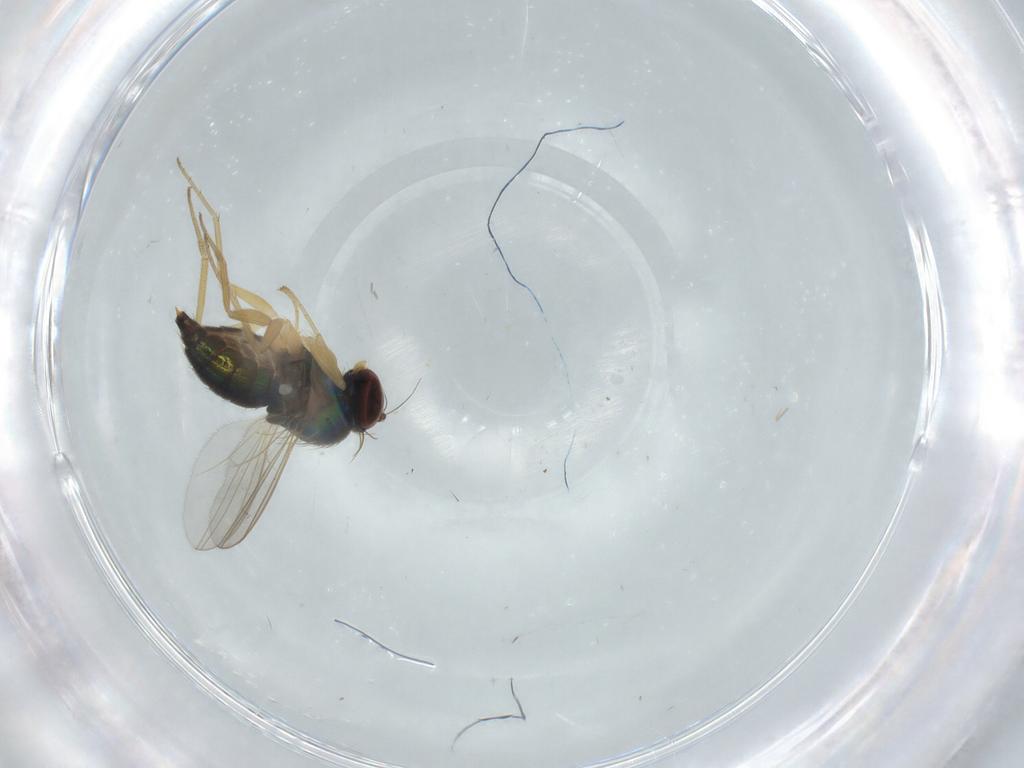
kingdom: Animalia
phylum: Arthropoda
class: Insecta
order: Diptera
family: Dolichopodidae
